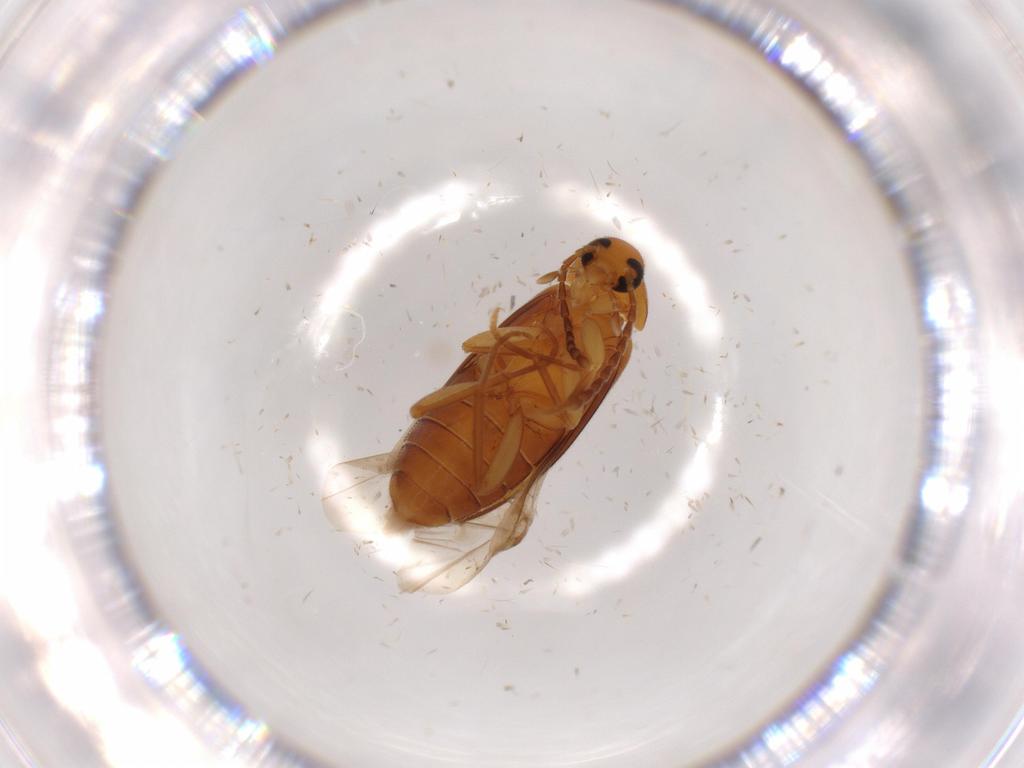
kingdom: Animalia
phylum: Arthropoda
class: Insecta
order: Coleoptera
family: Scraptiidae
